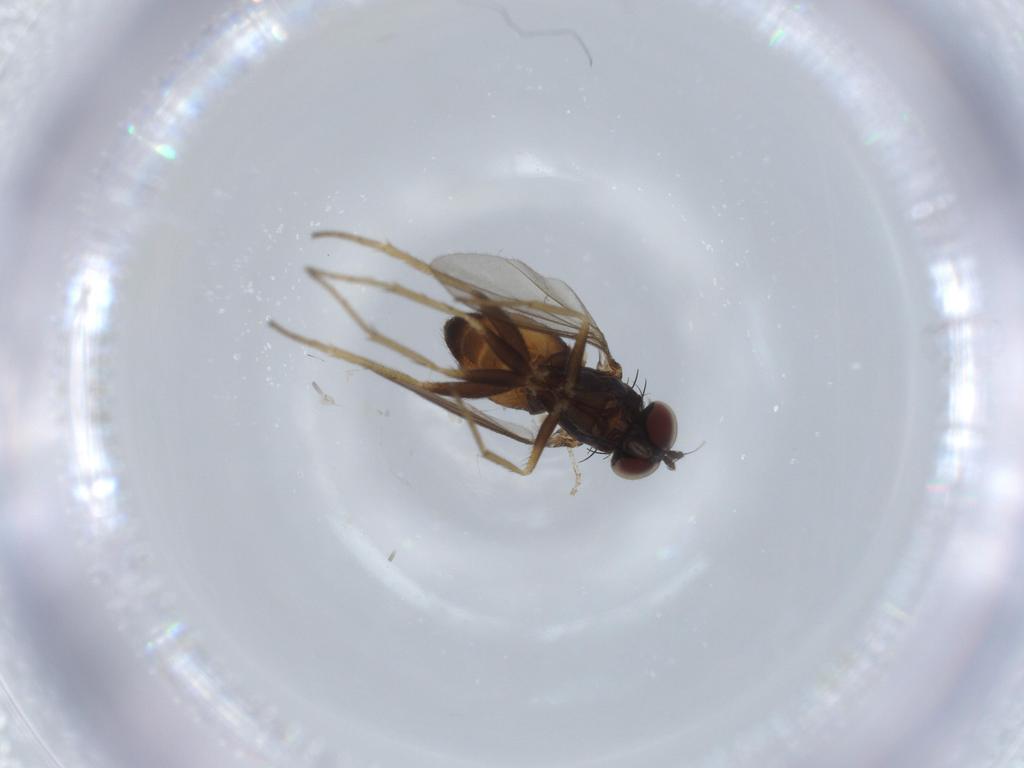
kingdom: Animalia
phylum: Arthropoda
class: Insecta
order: Diptera
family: Dolichopodidae
